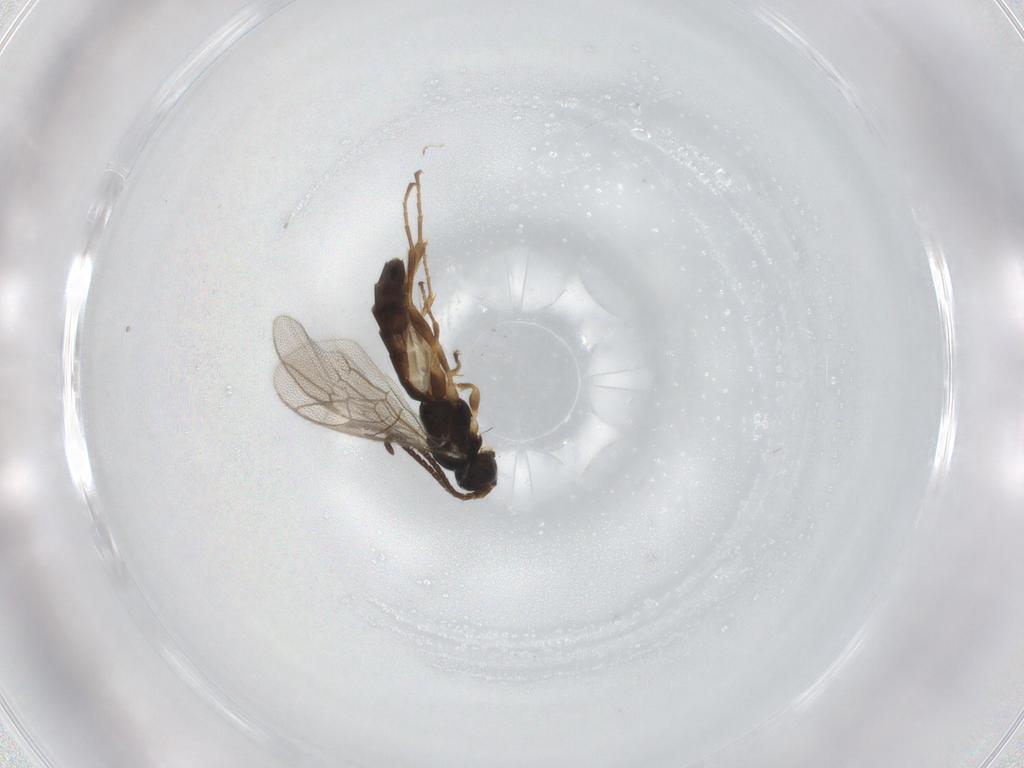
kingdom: Animalia
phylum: Arthropoda
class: Insecta
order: Hymenoptera
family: Ichneumonidae
